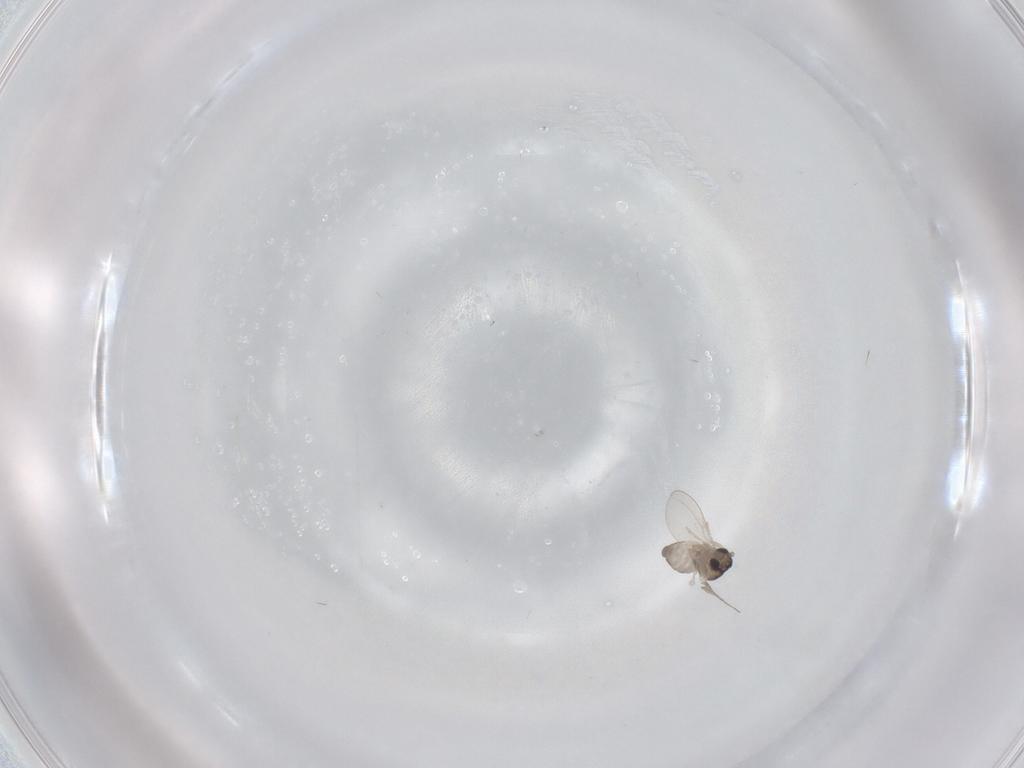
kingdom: Animalia
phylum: Arthropoda
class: Insecta
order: Diptera
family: Cecidomyiidae
